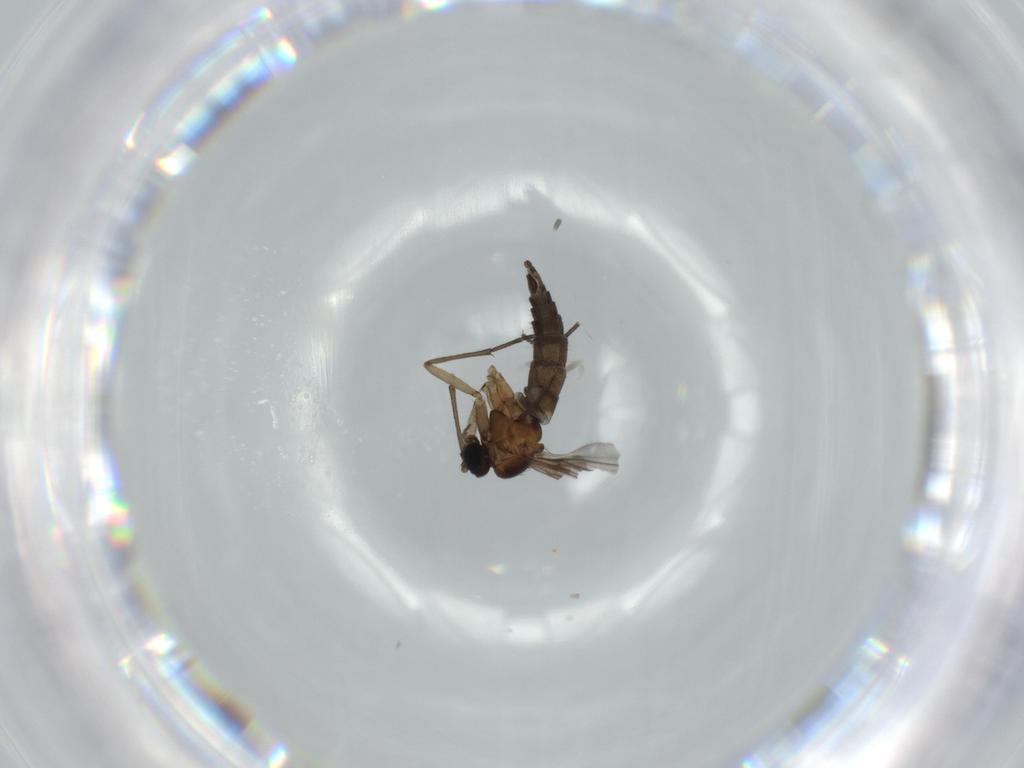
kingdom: Animalia
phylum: Arthropoda
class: Insecta
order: Diptera
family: Sciaridae
